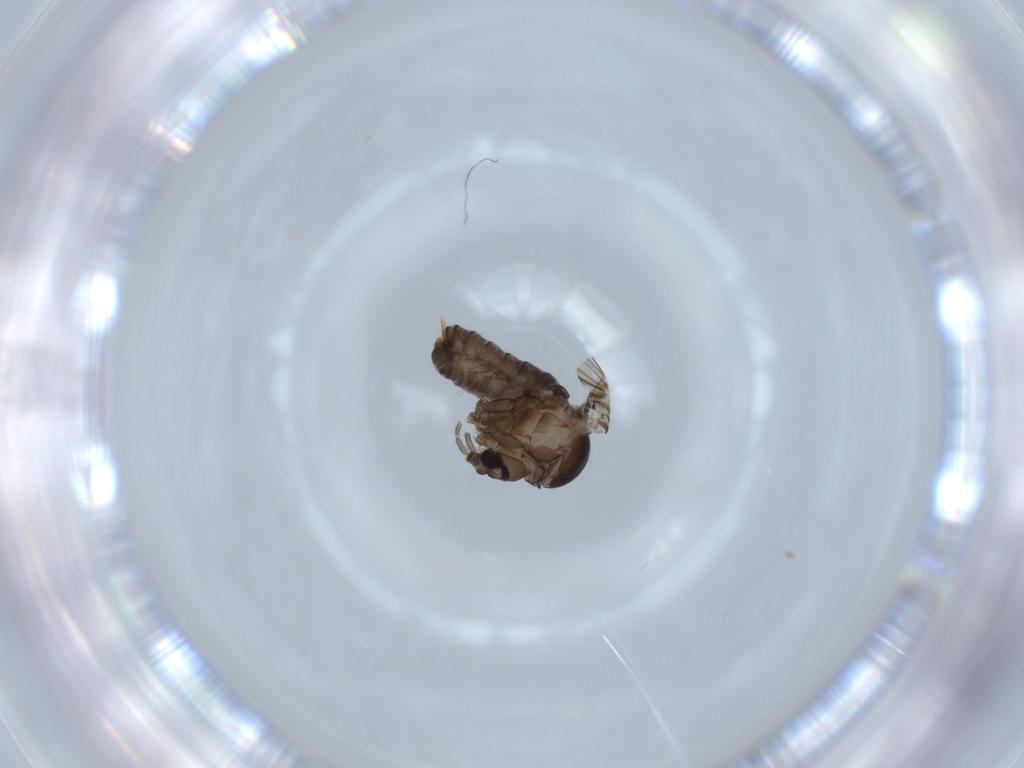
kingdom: Animalia
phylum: Arthropoda
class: Insecta
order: Diptera
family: Psychodidae
